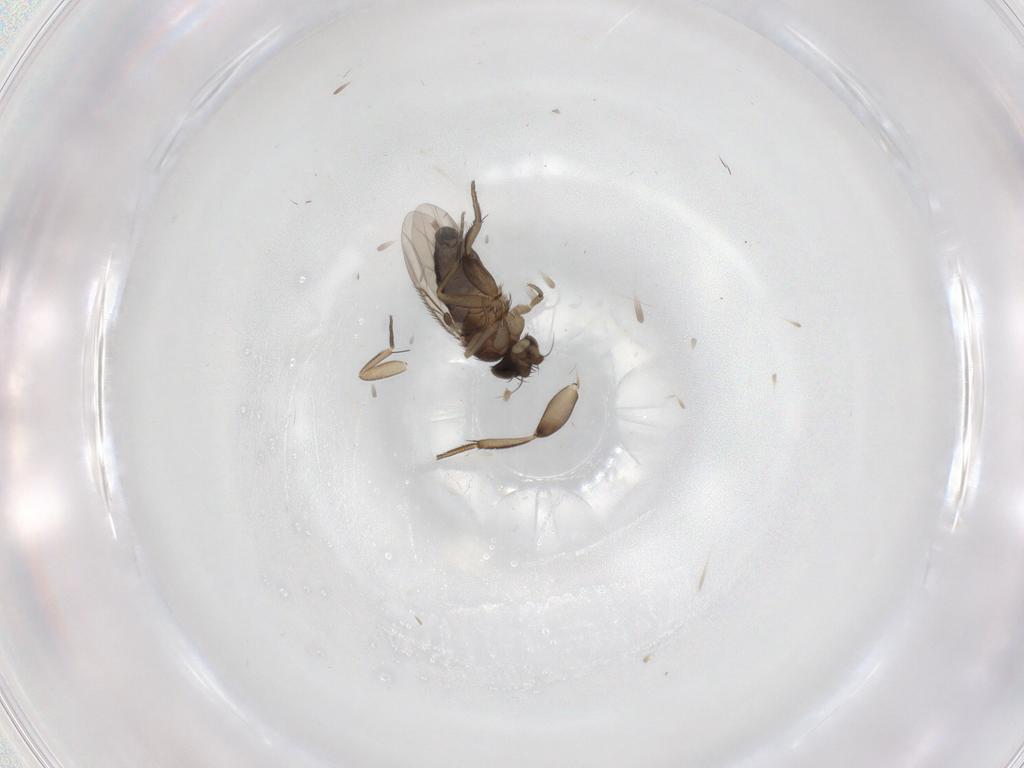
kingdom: Animalia
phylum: Arthropoda
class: Insecta
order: Diptera
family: Phoridae
